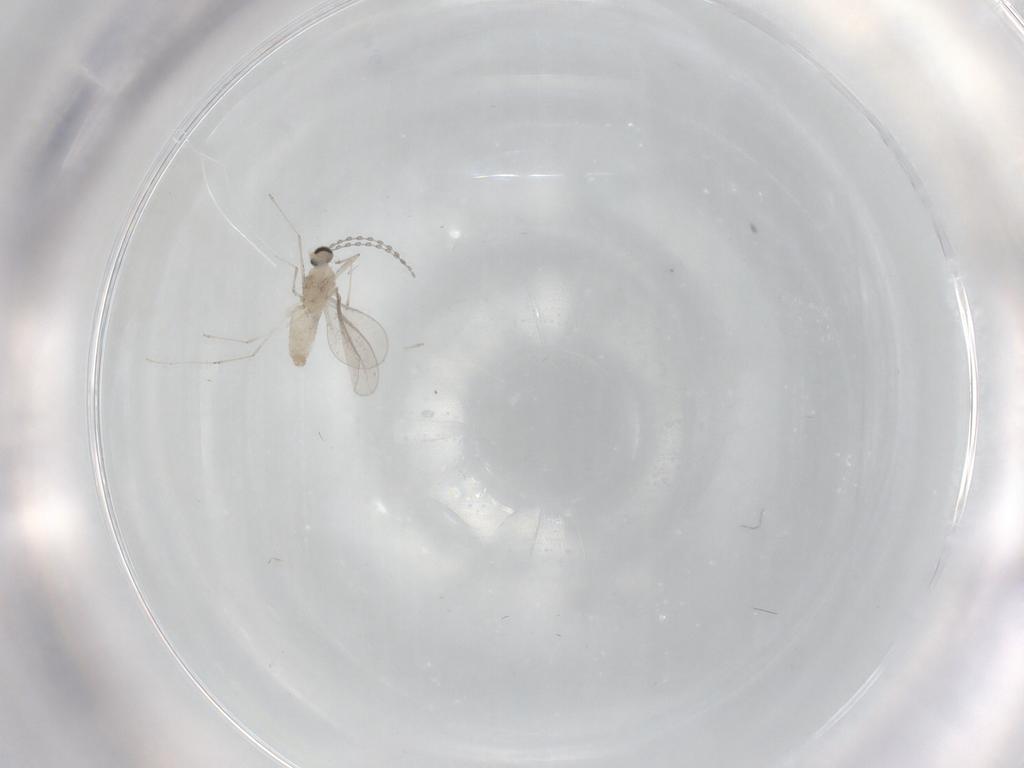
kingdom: Animalia
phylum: Arthropoda
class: Insecta
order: Diptera
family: Cecidomyiidae
